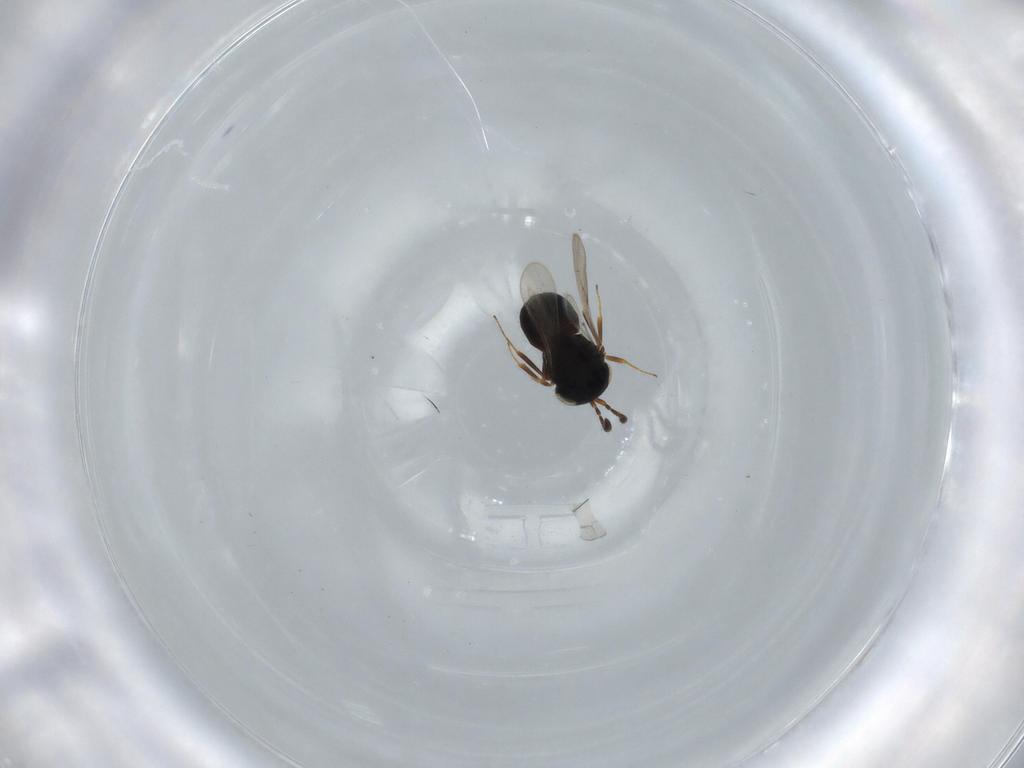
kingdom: Animalia
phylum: Arthropoda
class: Insecta
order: Hymenoptera
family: Scelionidae
